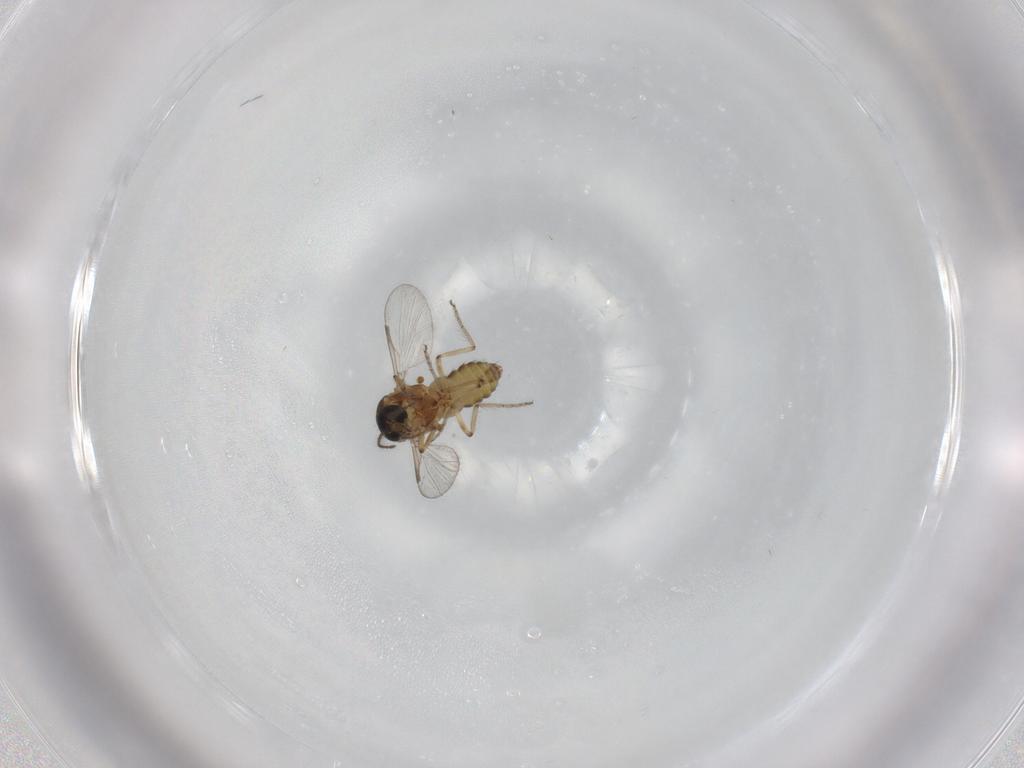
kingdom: Animalia
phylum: Arthropoda
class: Insecta
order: Diptera
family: Ceratopogonidae
